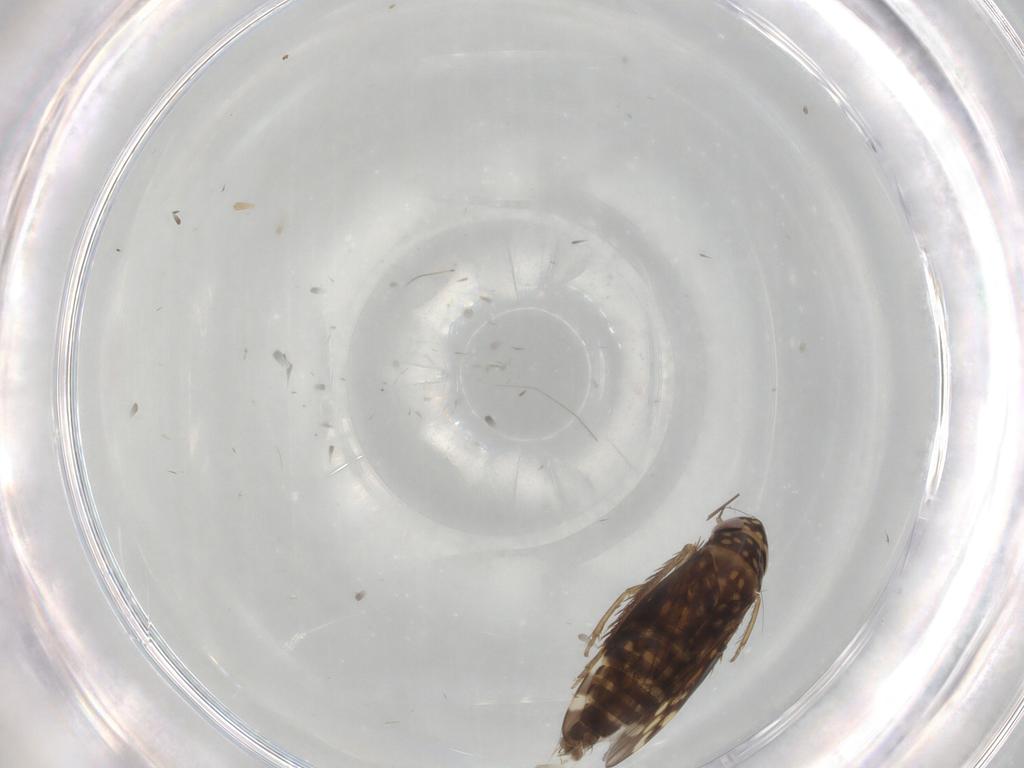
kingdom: Animalia
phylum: Arthropoda
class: Insecta
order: Hemiptera
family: Cicadellidae
